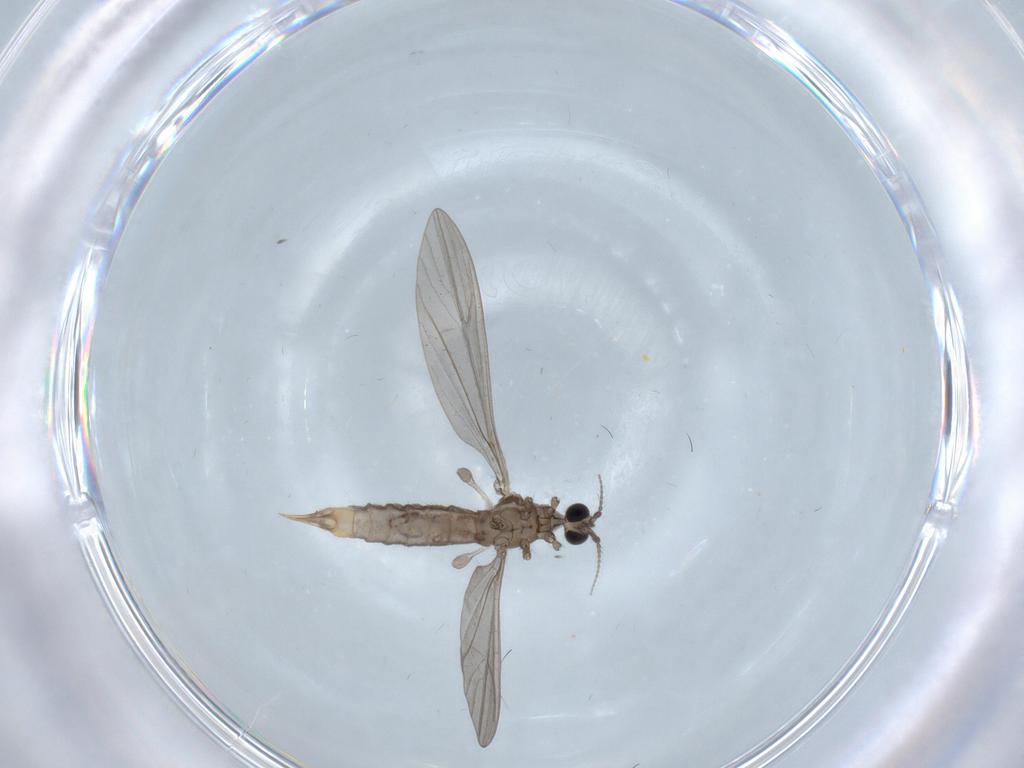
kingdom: Animalia
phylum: Arthropoda
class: Insecta
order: Diptera
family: Limoniidae
